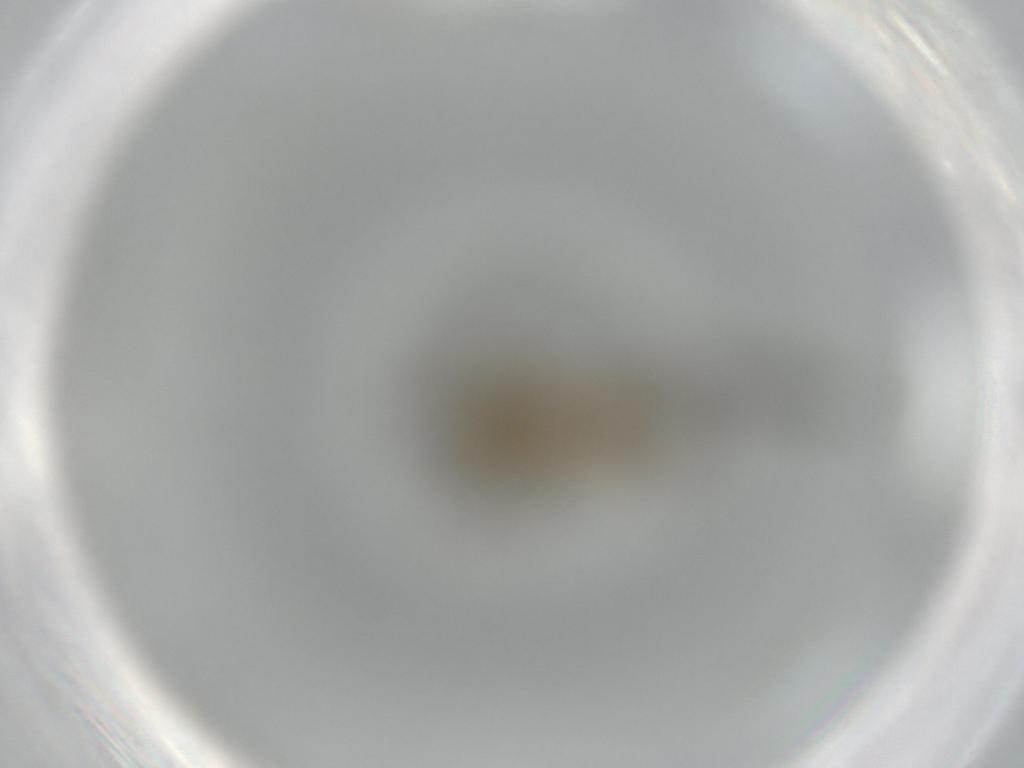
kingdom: Animalia
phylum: Arthropoda
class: Insecta
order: Diptera
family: Sciaridae
